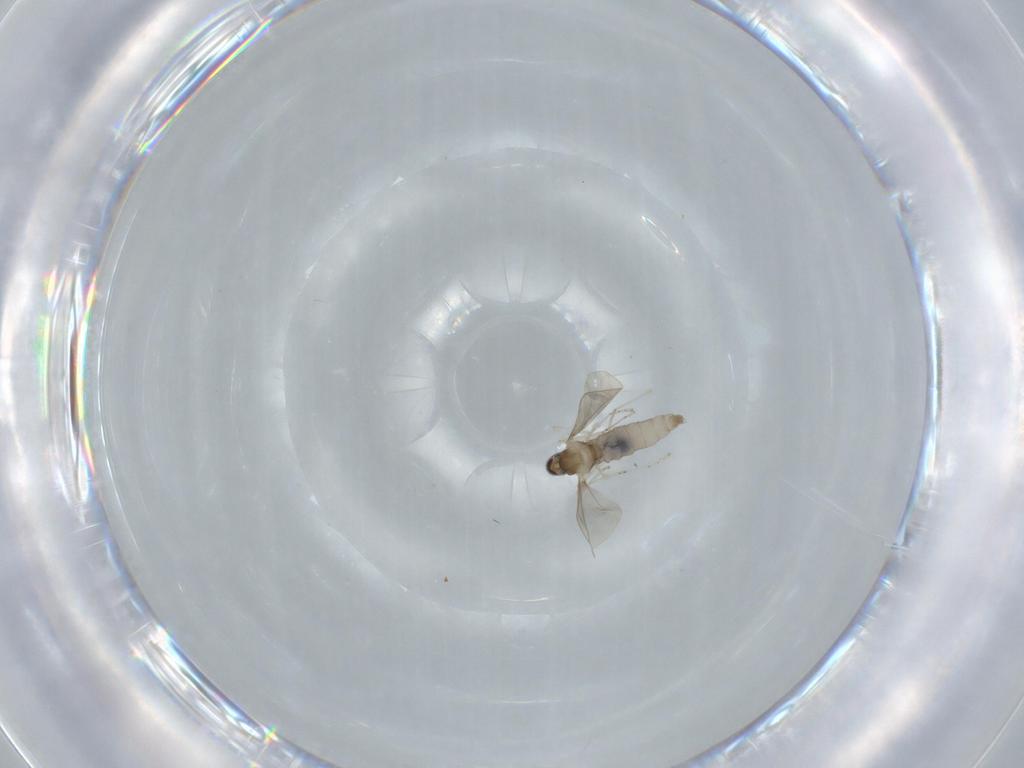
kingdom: Animalia
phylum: Arthropoda
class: Insecta
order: Diptera
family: Cecidomyiidae
